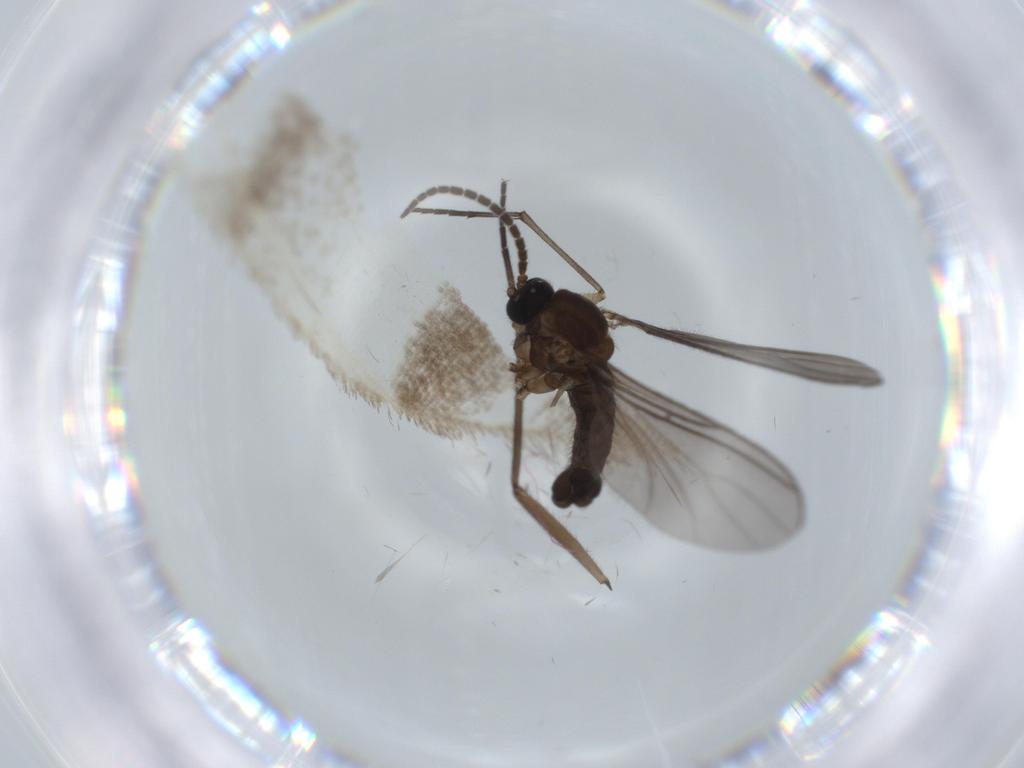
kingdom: Animalia
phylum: Arthropoda
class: Insecta
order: Diptera
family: Sciaridae
